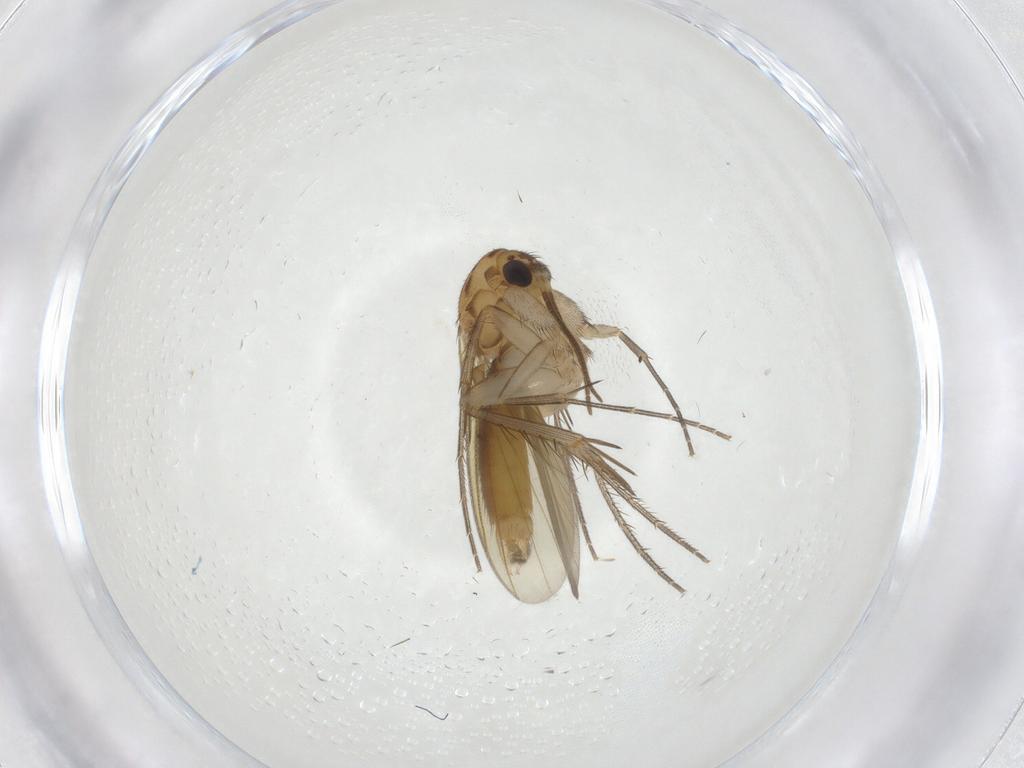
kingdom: Animalia
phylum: Arthropoda
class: Insecta
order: Diptera
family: Mycetophilidae
